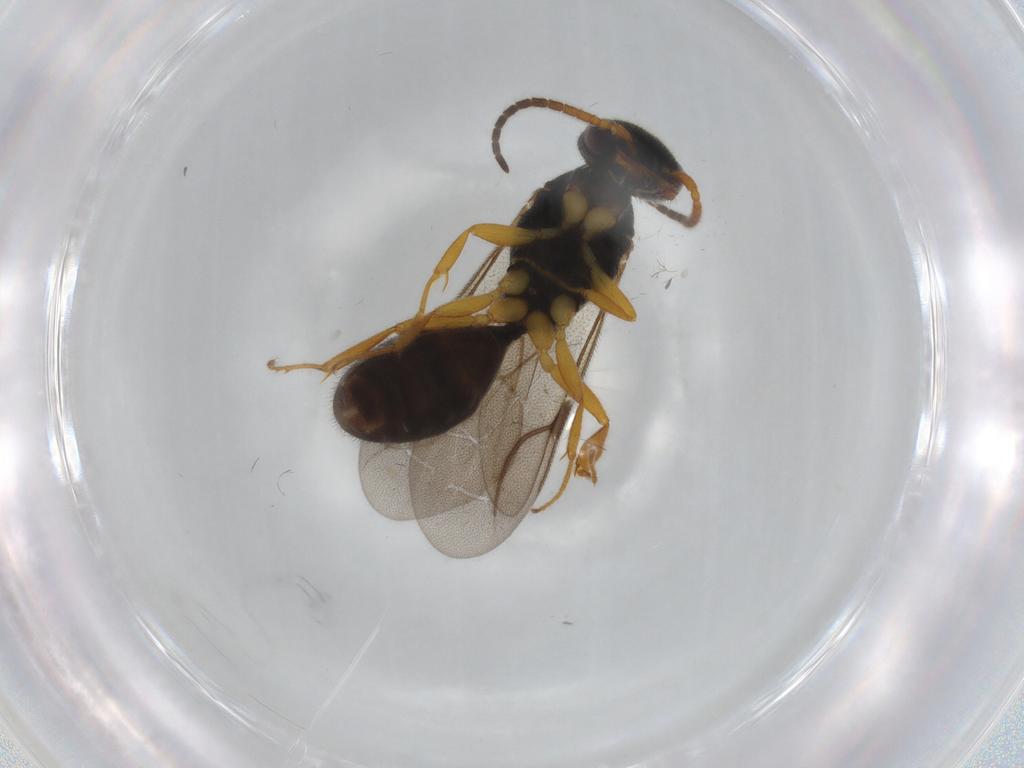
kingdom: Animalia
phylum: Arthropoda
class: Insecta
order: Hymenoptera
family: Bethylidae
